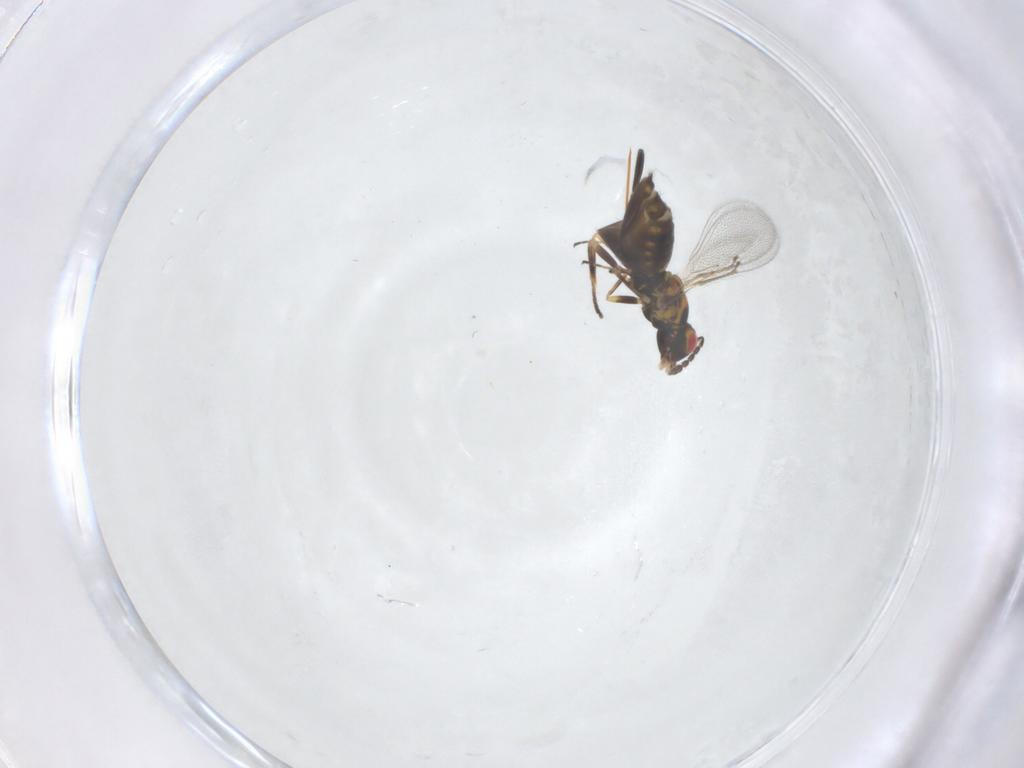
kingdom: Animalia
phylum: Arthropoda
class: Insecta
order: Hymenoptera
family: Eulophidae
